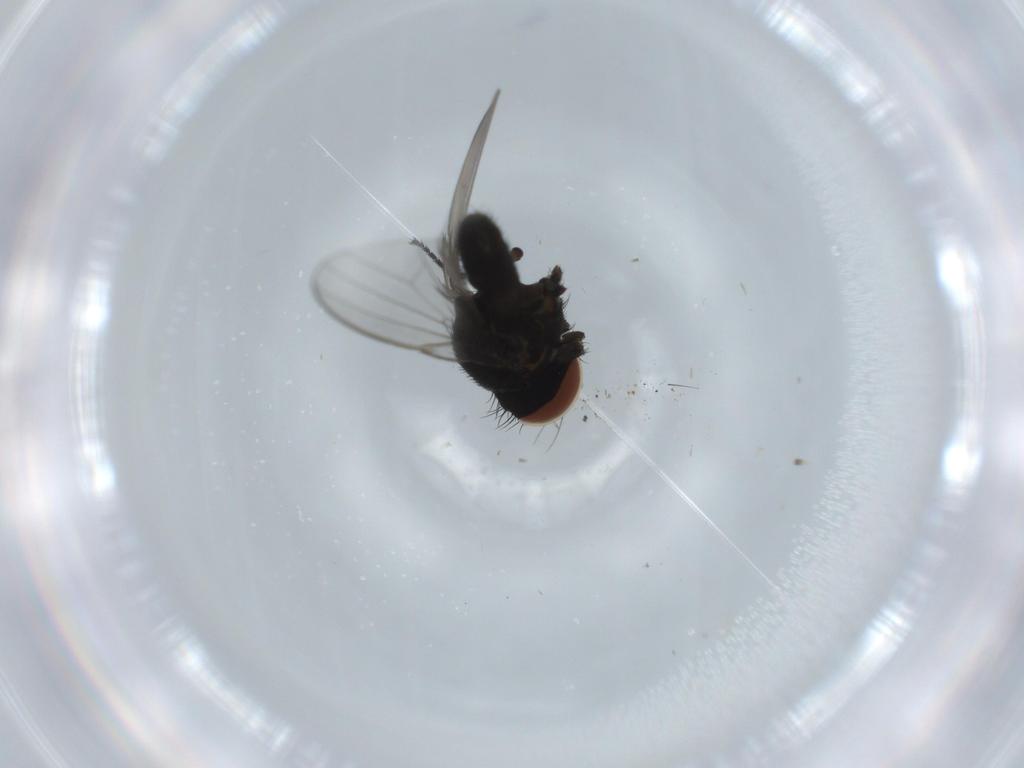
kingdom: Animalia
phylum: Arthropoda
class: Insecta
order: Diptera
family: Milichiidae
